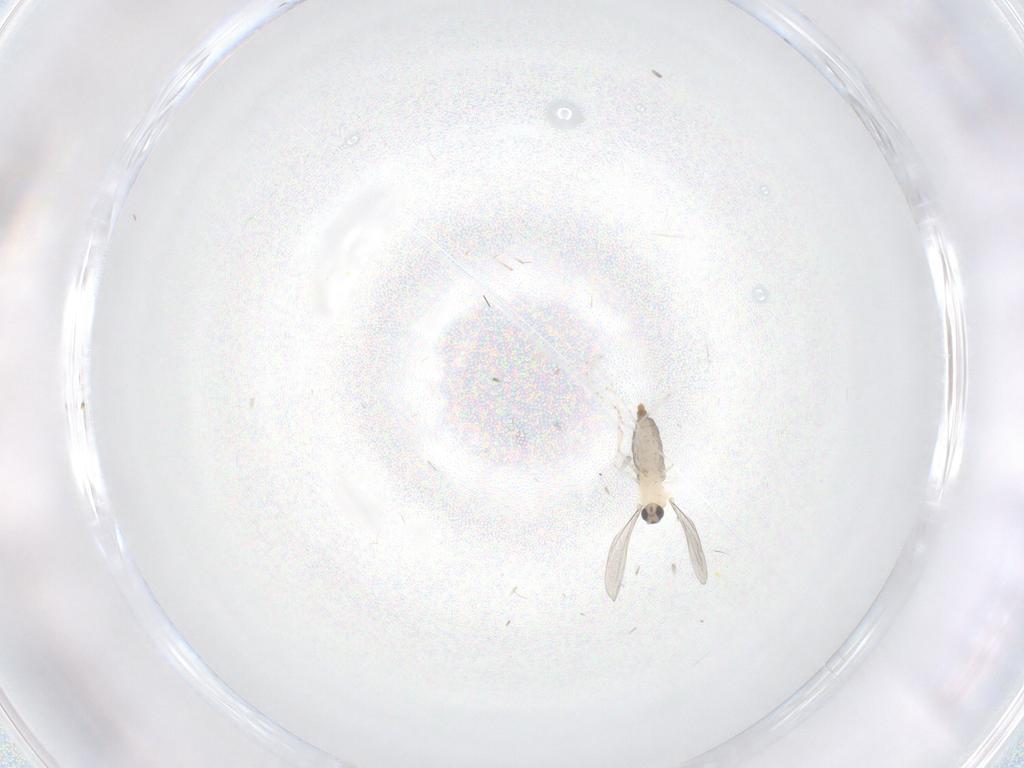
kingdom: Animalia
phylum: Arthropoda
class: Insecta
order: Diptera
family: Cecidomyiidae
